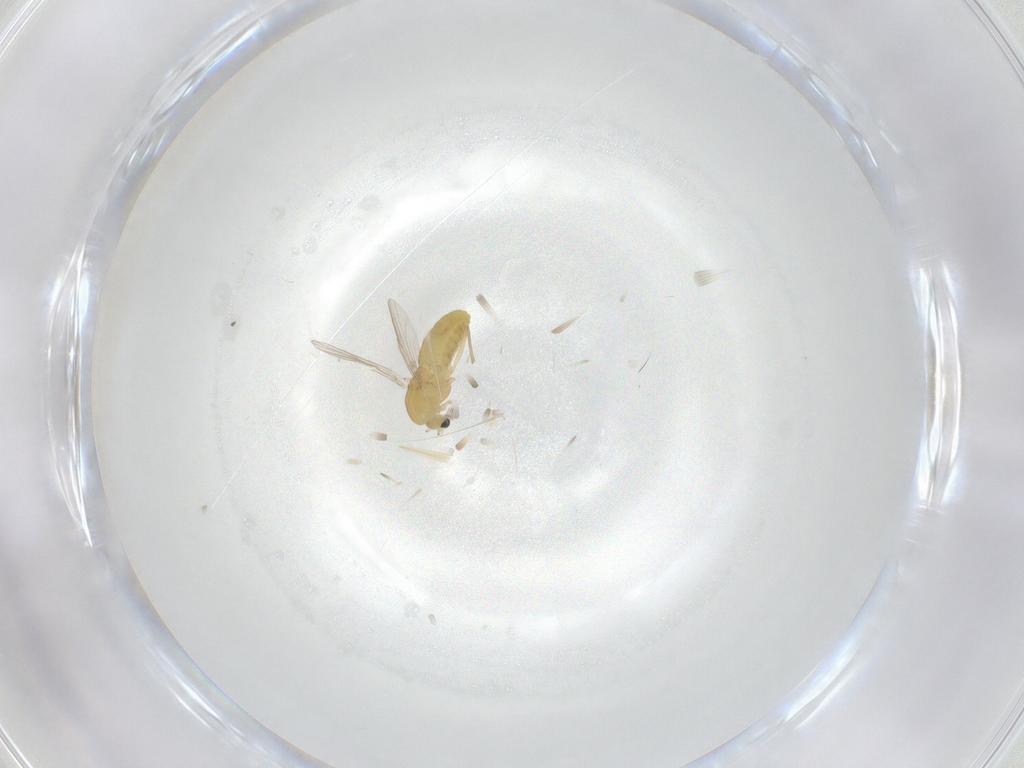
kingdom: Animalia
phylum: Arthropoda
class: Insecta
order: Diptera
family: Chironomidae
